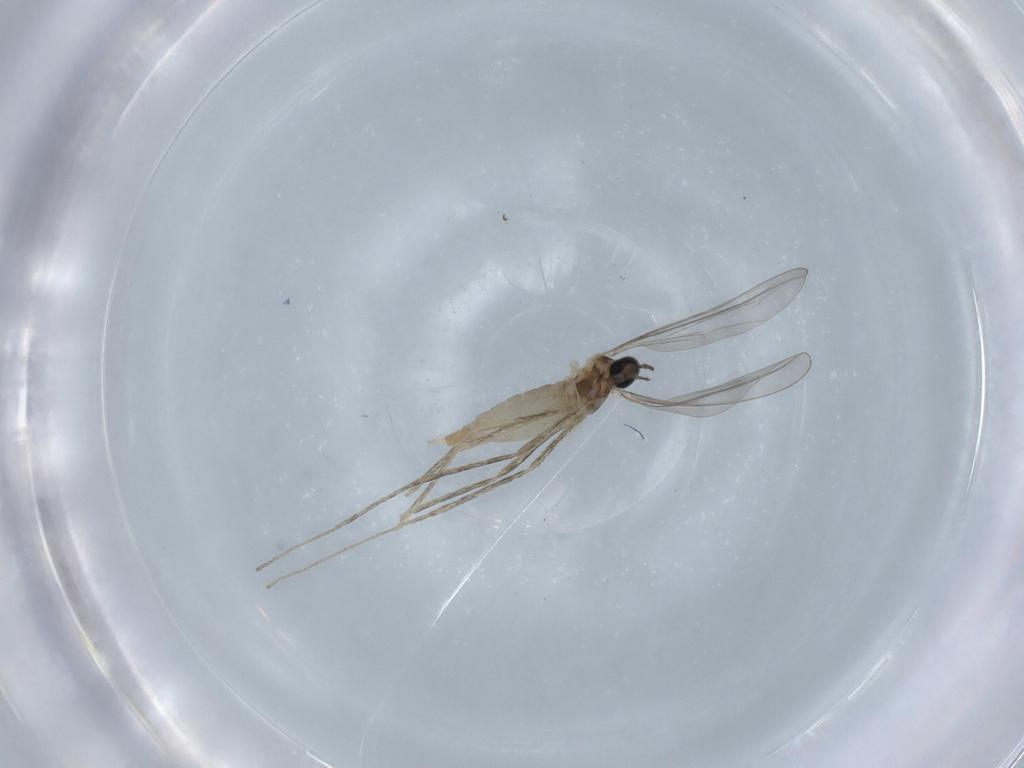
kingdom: Animalia
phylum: Arthropoda
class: Insecta
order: Diptera
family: Cecidomyiidae
